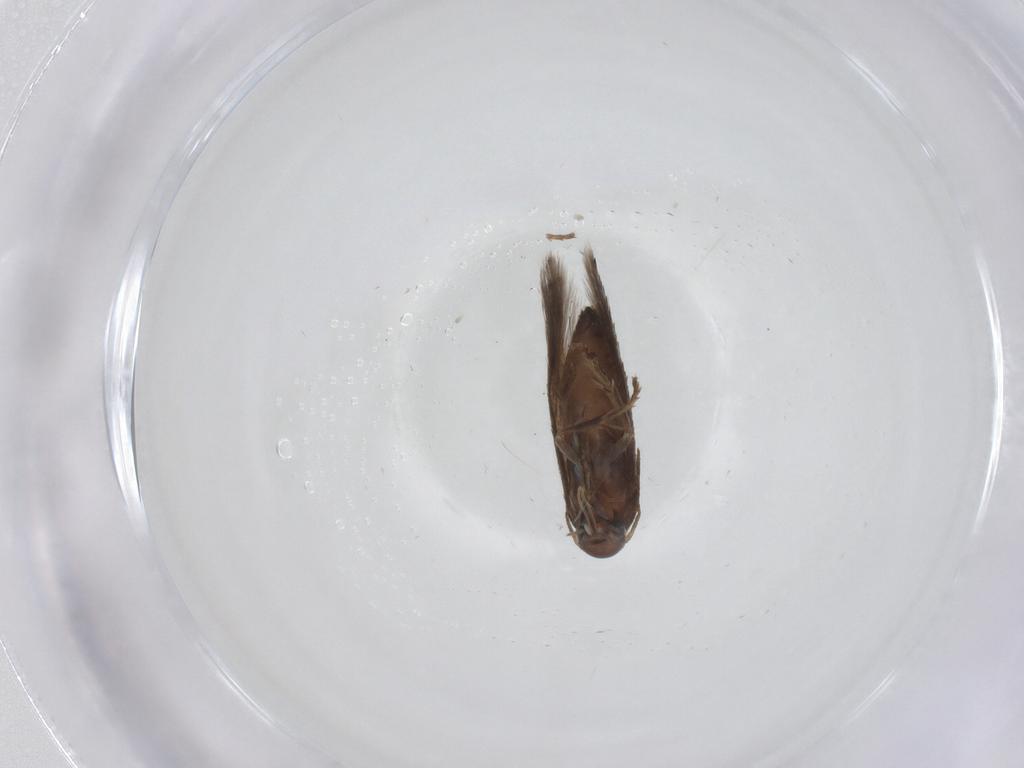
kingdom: Animalia
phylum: Arthropoda
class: Insecta
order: Lepidoptera
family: Heliozelidae
